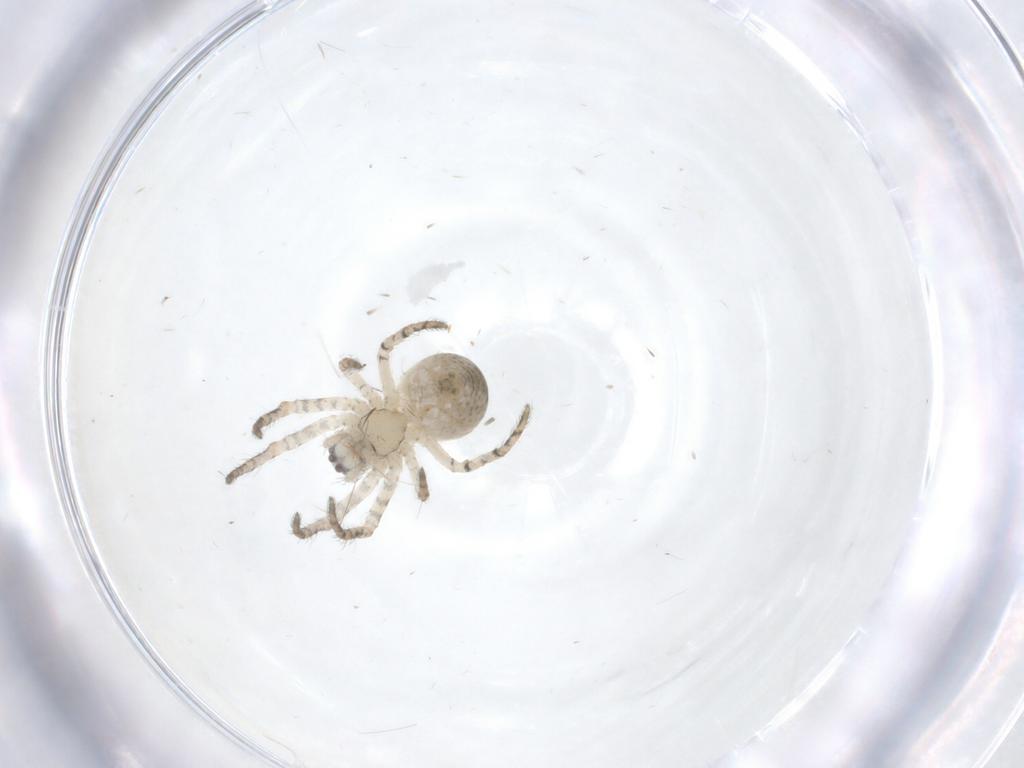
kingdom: Animalia
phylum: Arthropoda
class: Arachnida
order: Araneae
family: Araneidae
